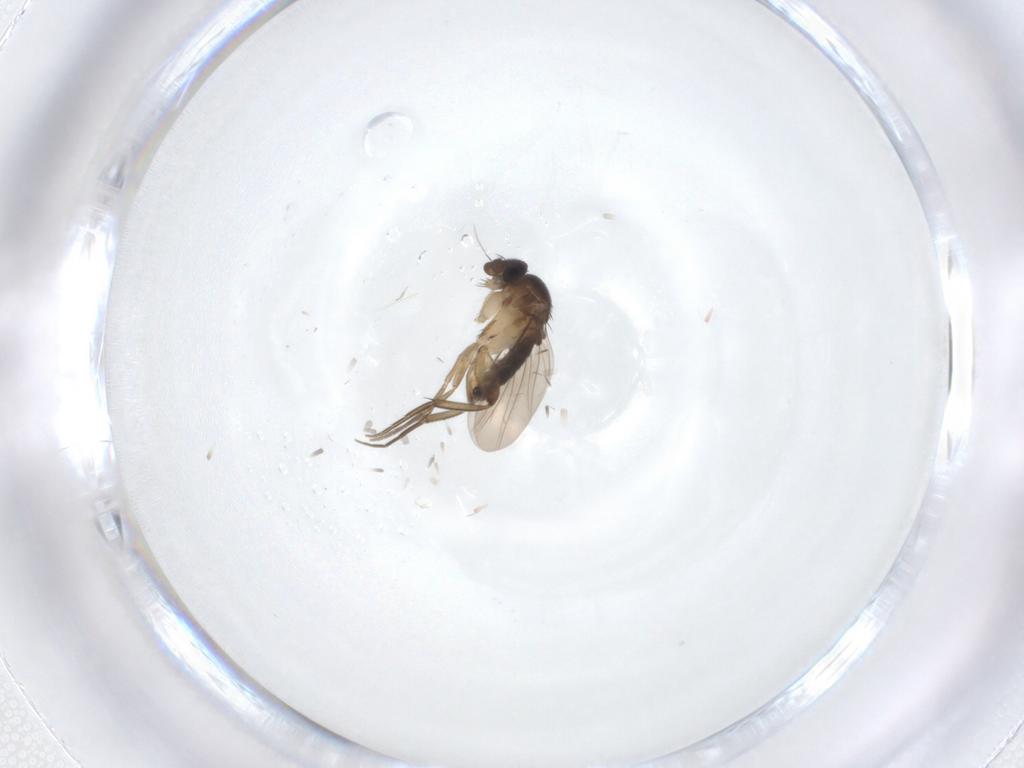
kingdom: Animalia
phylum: Arthropoda
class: Insecta
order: Diptera
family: Phoridae
